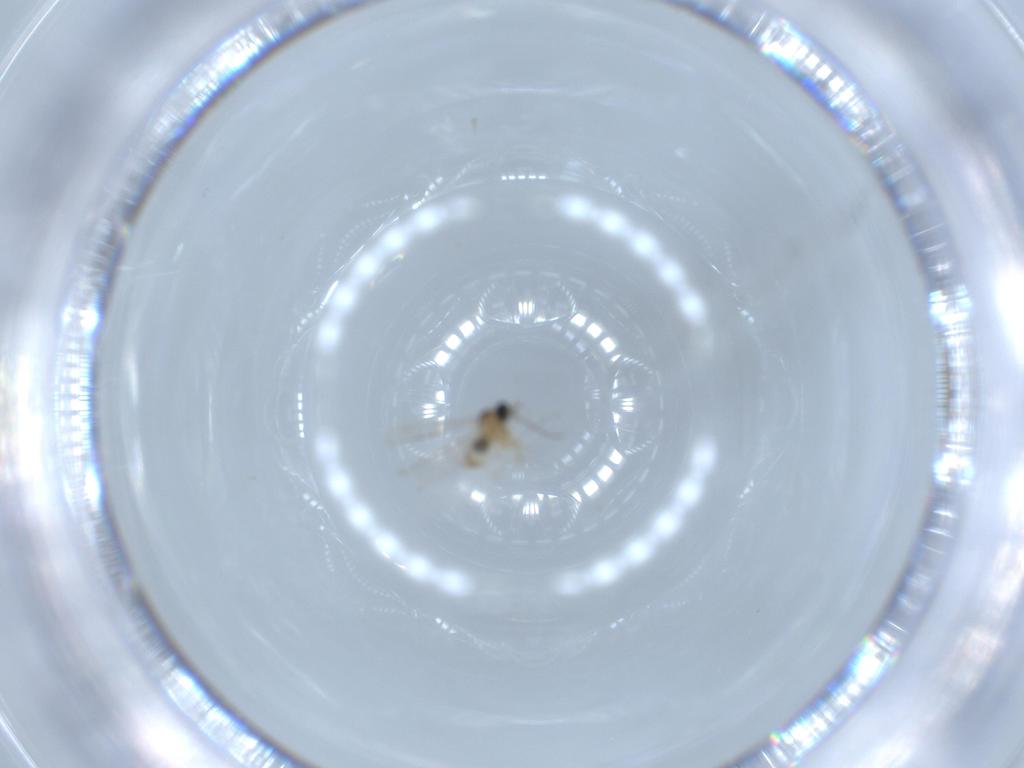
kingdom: Animalia
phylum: Arthropoda
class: Insecta
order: Diptera
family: Cecidomyiidae
